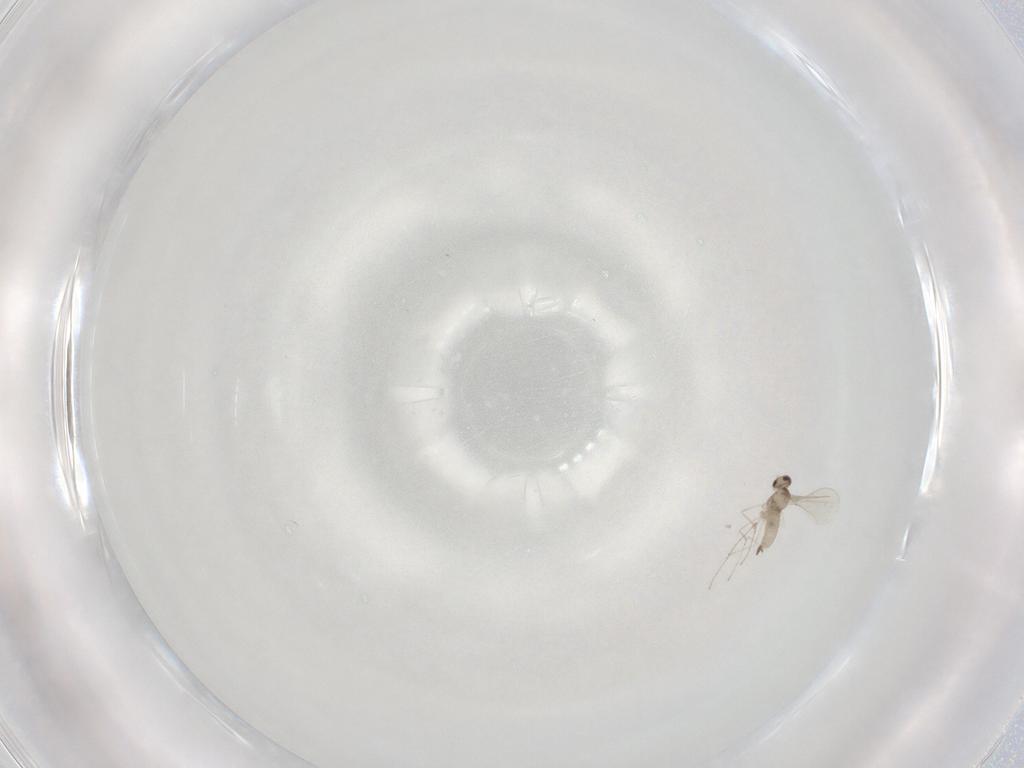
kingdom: Animalia
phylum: Arthropoda
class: Insecta
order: Diptera
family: Cecidomyiidae
